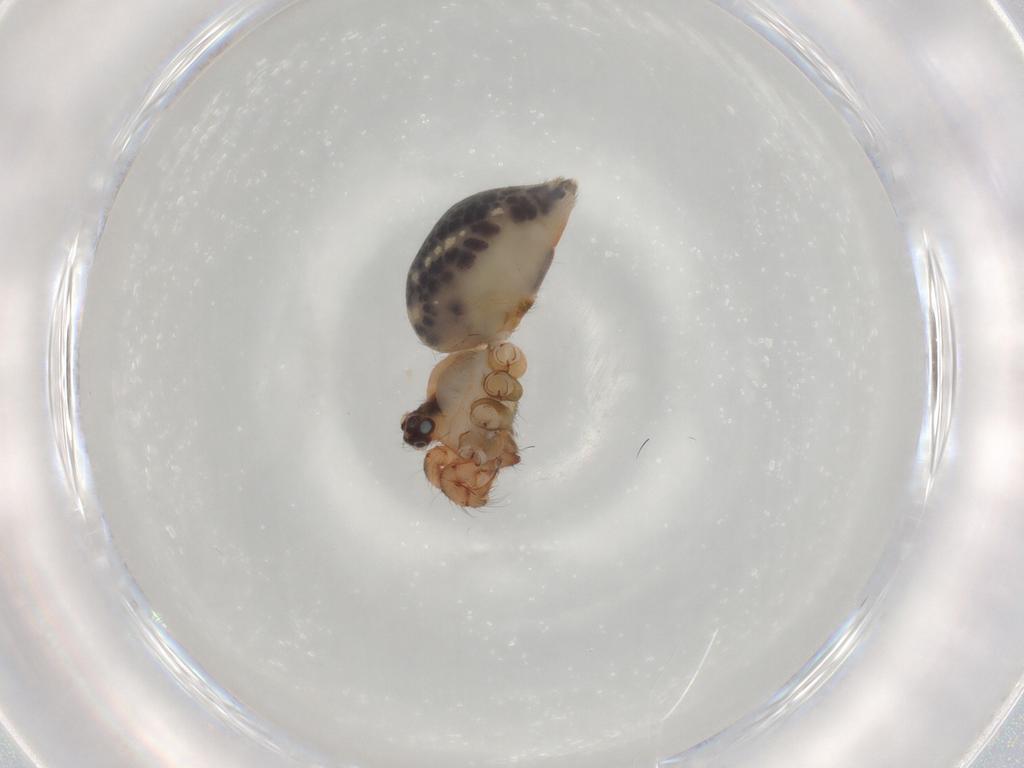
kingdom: Animalia
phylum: Arthropoda
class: Arachnida
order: Araneae
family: Pholcidae
